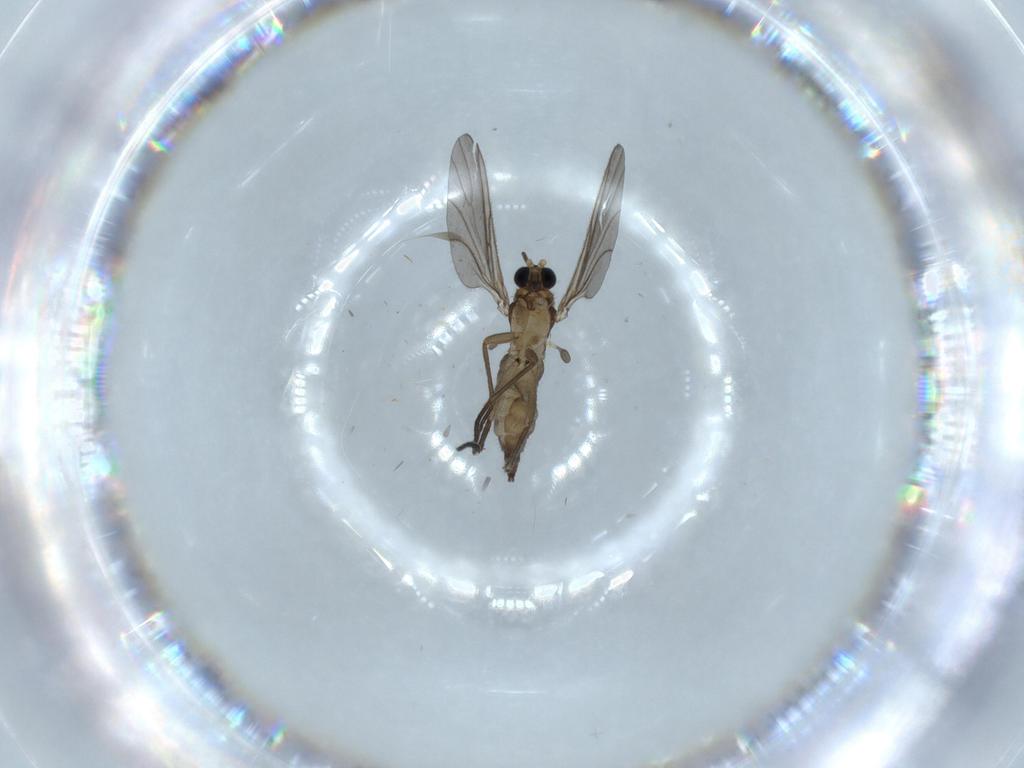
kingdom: Animalia
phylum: Arthropoda
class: Insecta
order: Diptera
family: Sciaridae
